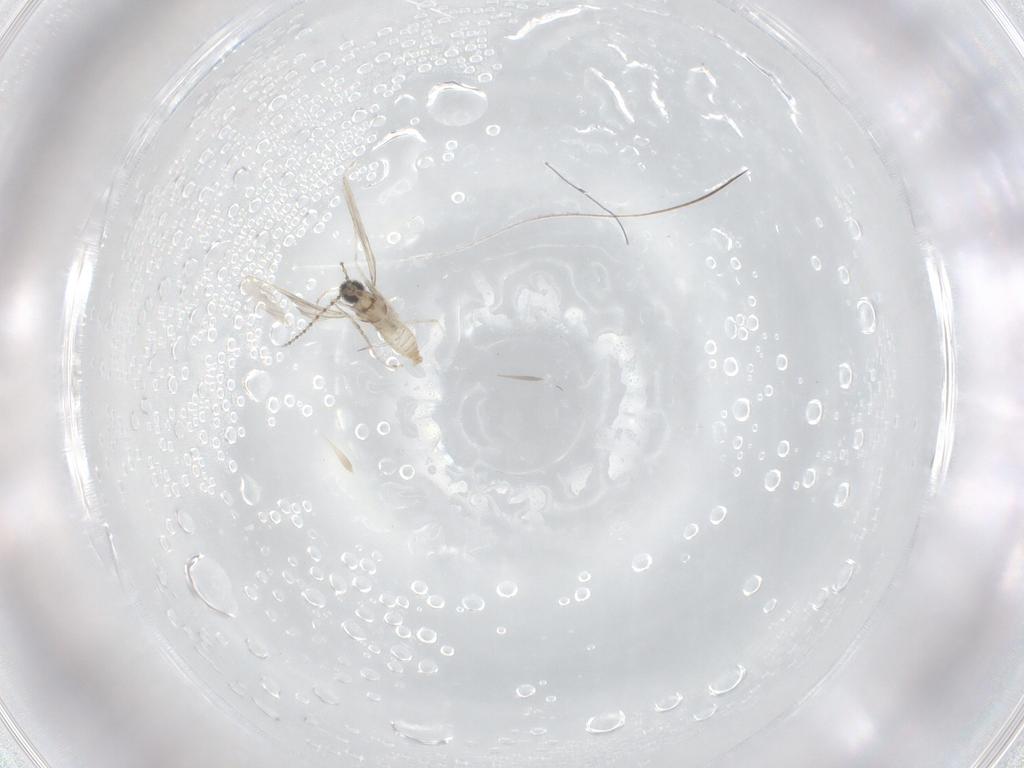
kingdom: Animalia
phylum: Arthropoda
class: Insecta
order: Diptera
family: Cecidomyiidae
